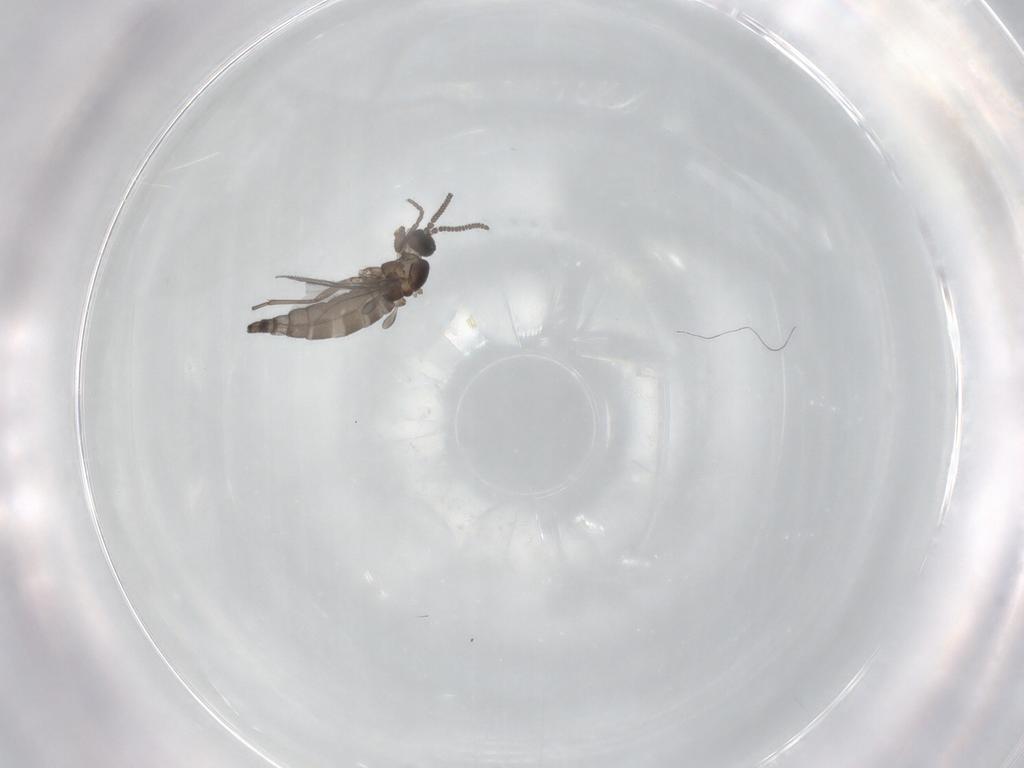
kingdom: Animalia
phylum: Arthropoda
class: Insecta
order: Diptera
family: Sciaridae
